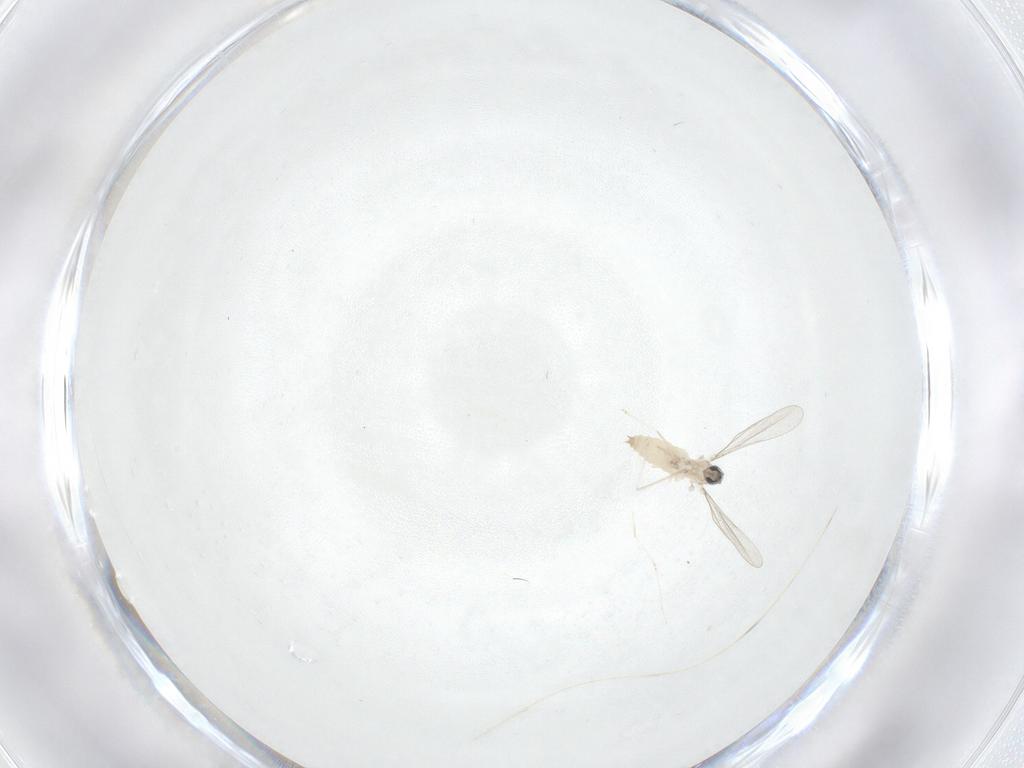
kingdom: Animalia
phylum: Arthropoda
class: Insecta
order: Diptera
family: Cecidomyiidae
